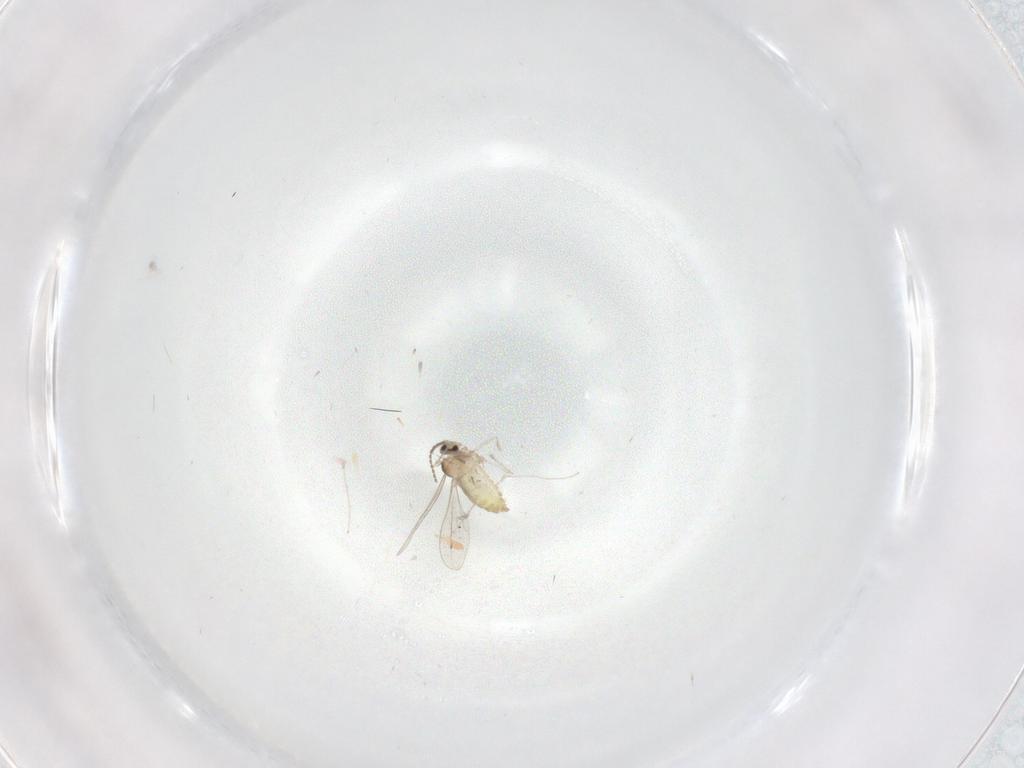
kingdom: Animalia
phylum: Arthropoda
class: Insecta
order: Diptera
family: Cecidomyiidae
